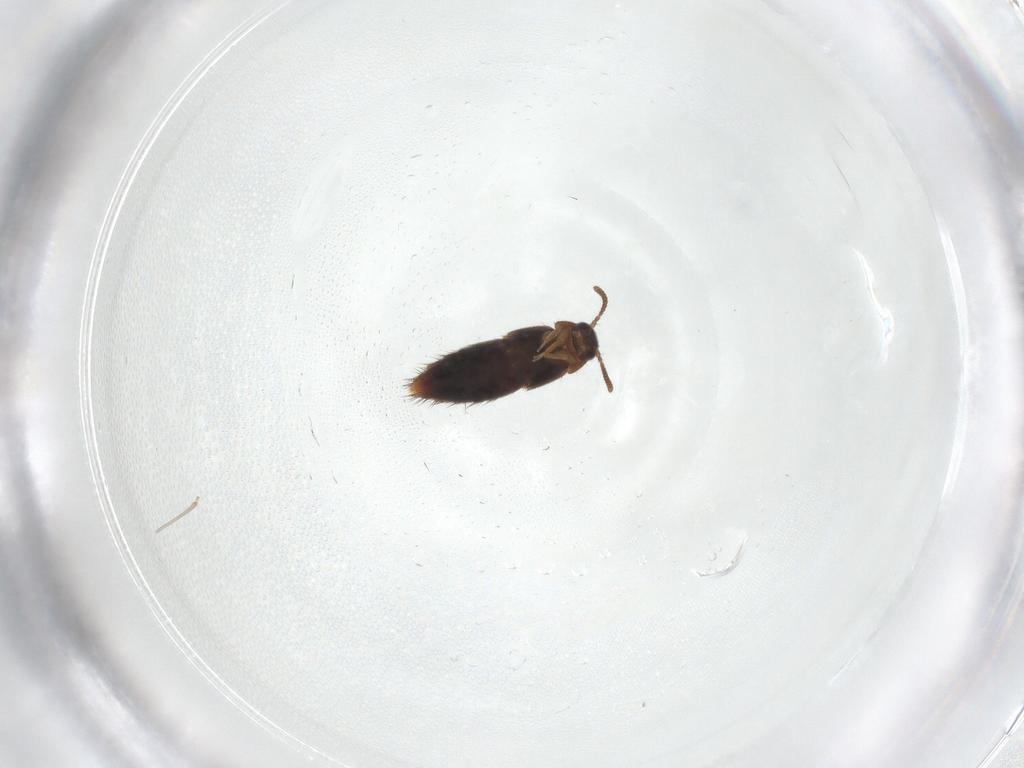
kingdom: Animalia
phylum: Arthropoda
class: Insecta
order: Coleoptera
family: Staphylinidae
